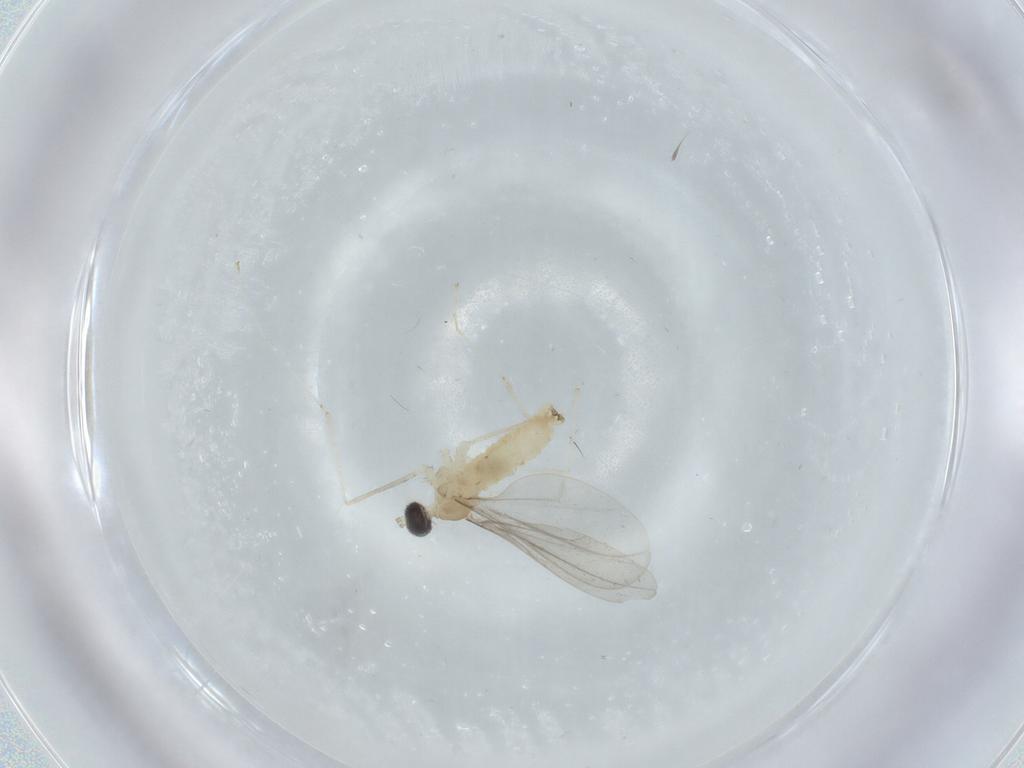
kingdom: Animalia
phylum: Arthropoda
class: Insecta
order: Diptera
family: Cecidomyiidae
